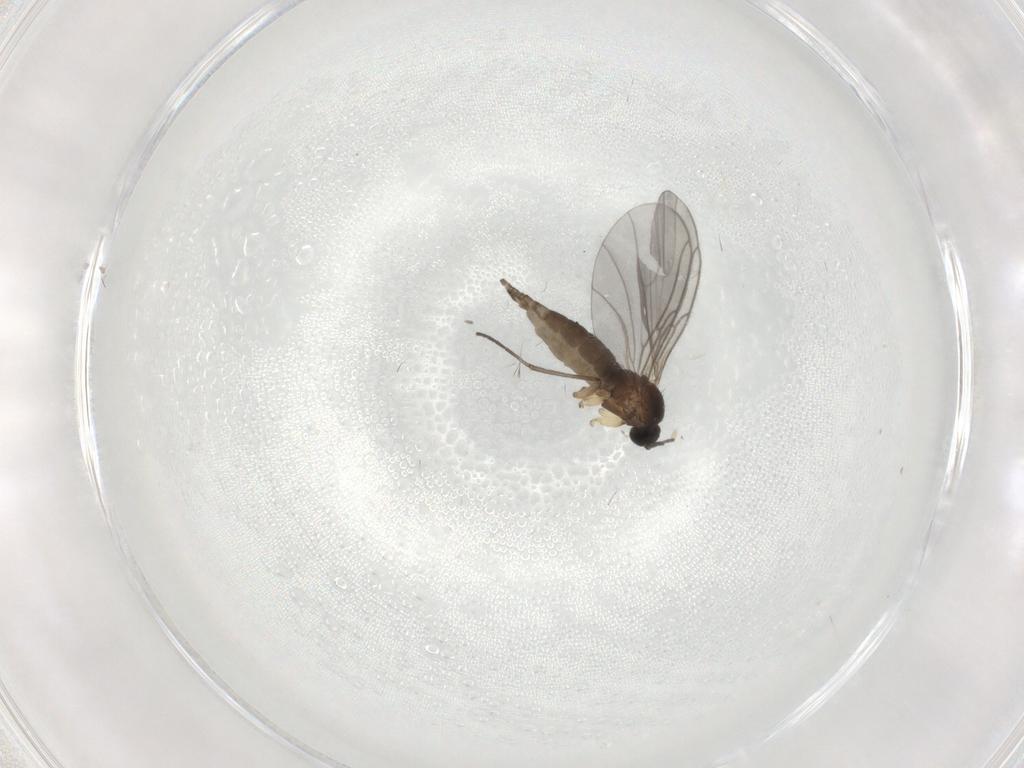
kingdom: Animalia
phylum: Arthropoda
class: Insecta
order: Diptera
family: Sciaridae
